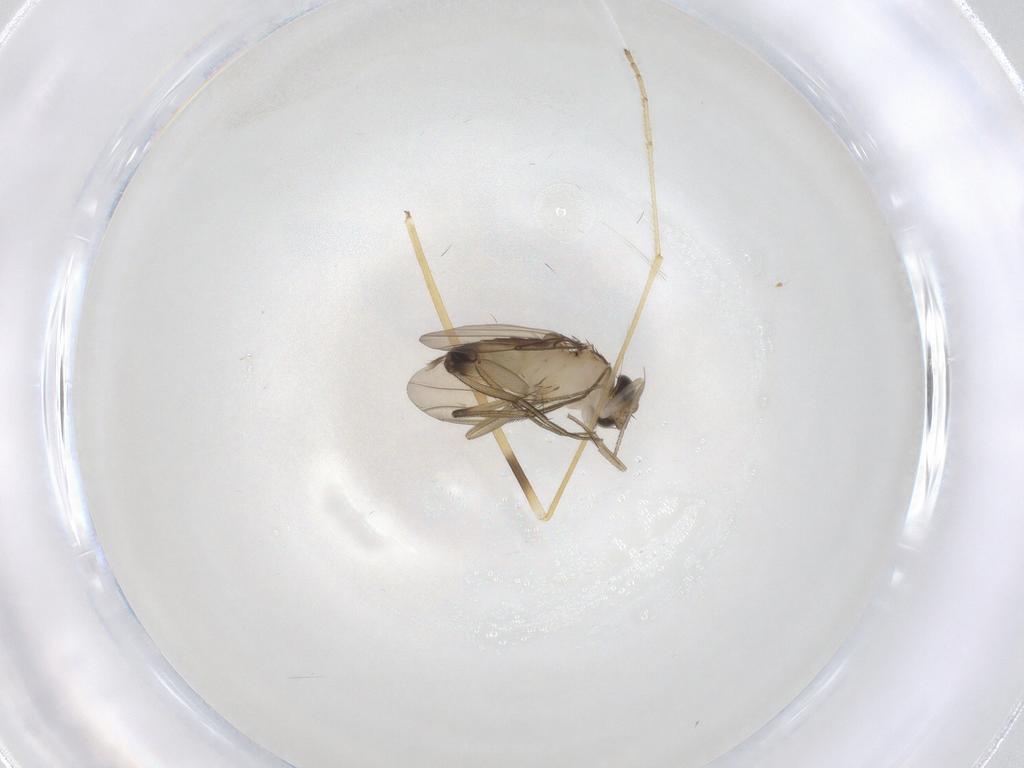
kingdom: Animalia
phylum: Arthropoda
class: Insecta
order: Diptera
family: Limoniidae
